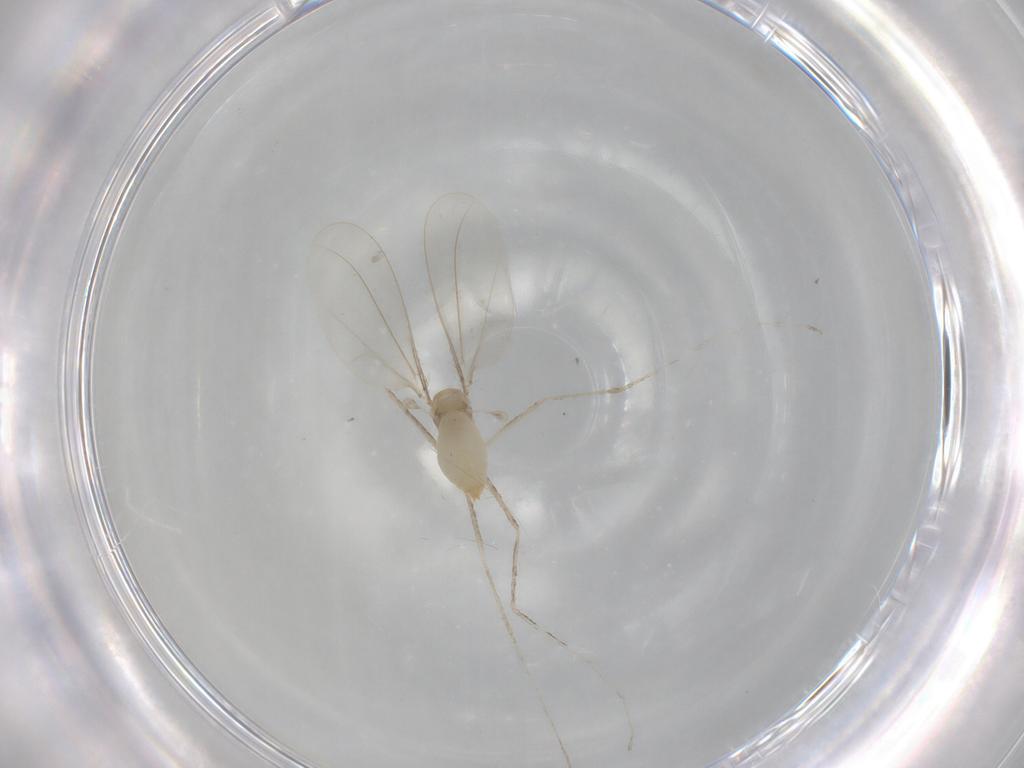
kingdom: Animalia
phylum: Arthropoda
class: Insecta
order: Diptera
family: Cecidomyiidae
